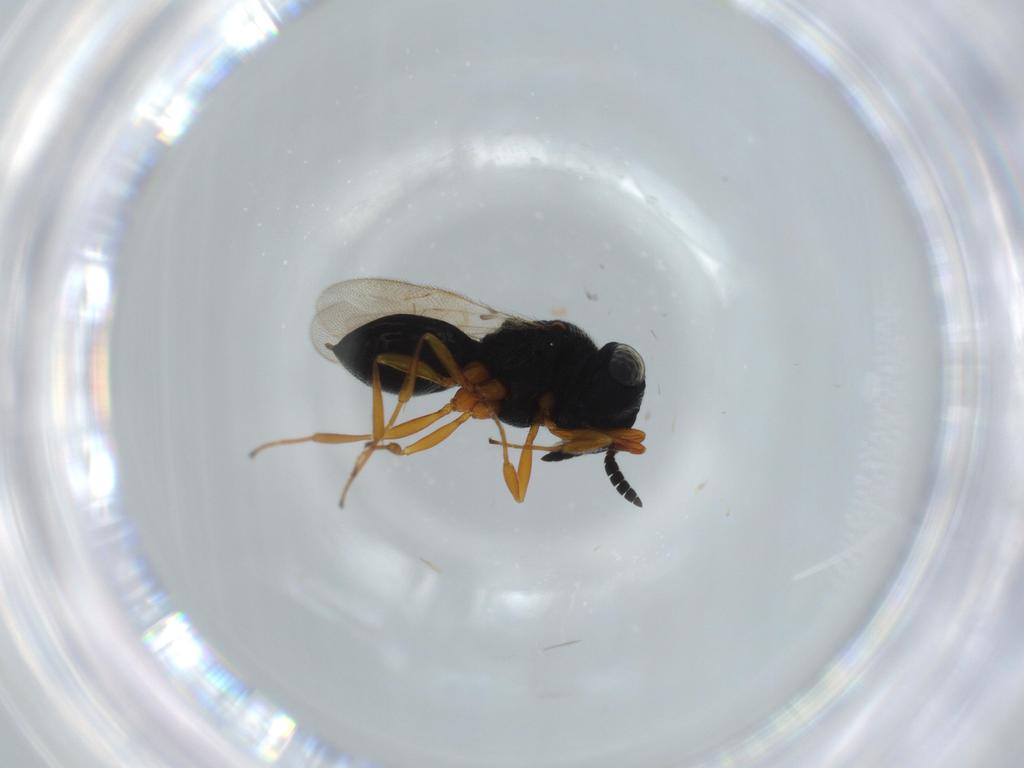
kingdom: Animalia
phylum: Arthropoda
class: Insecta
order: Hymenoptera
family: Scelionidae
